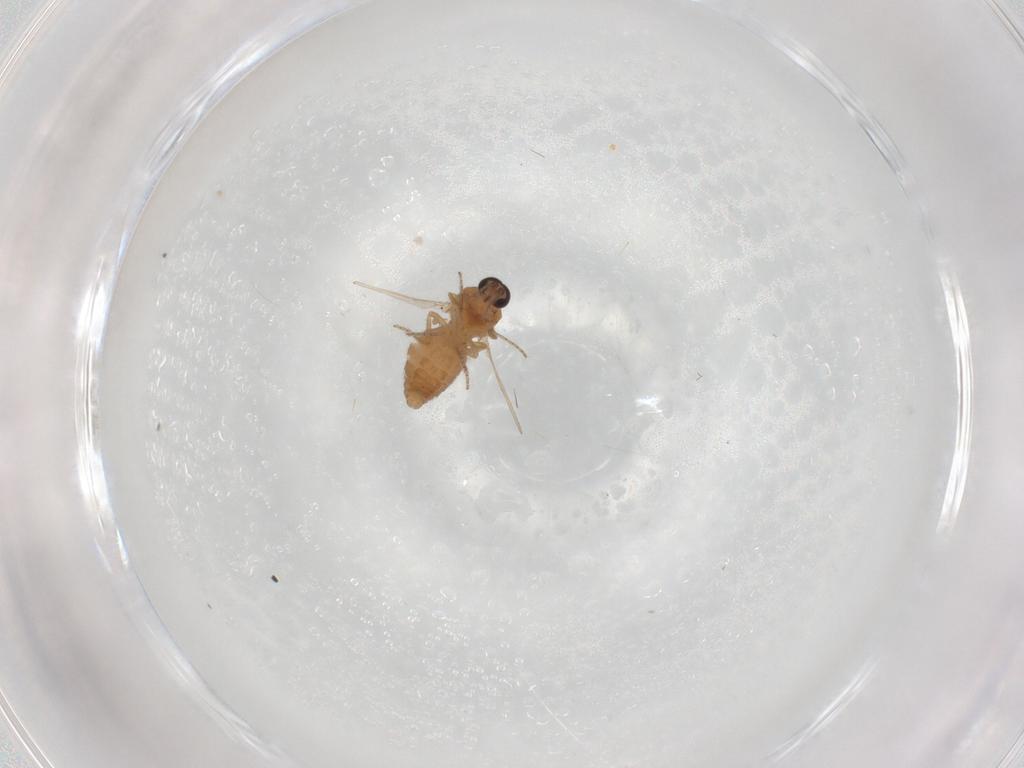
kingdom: Animalia
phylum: Arthropoda
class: Insecta
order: Diptera
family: Ceratopogonidae
